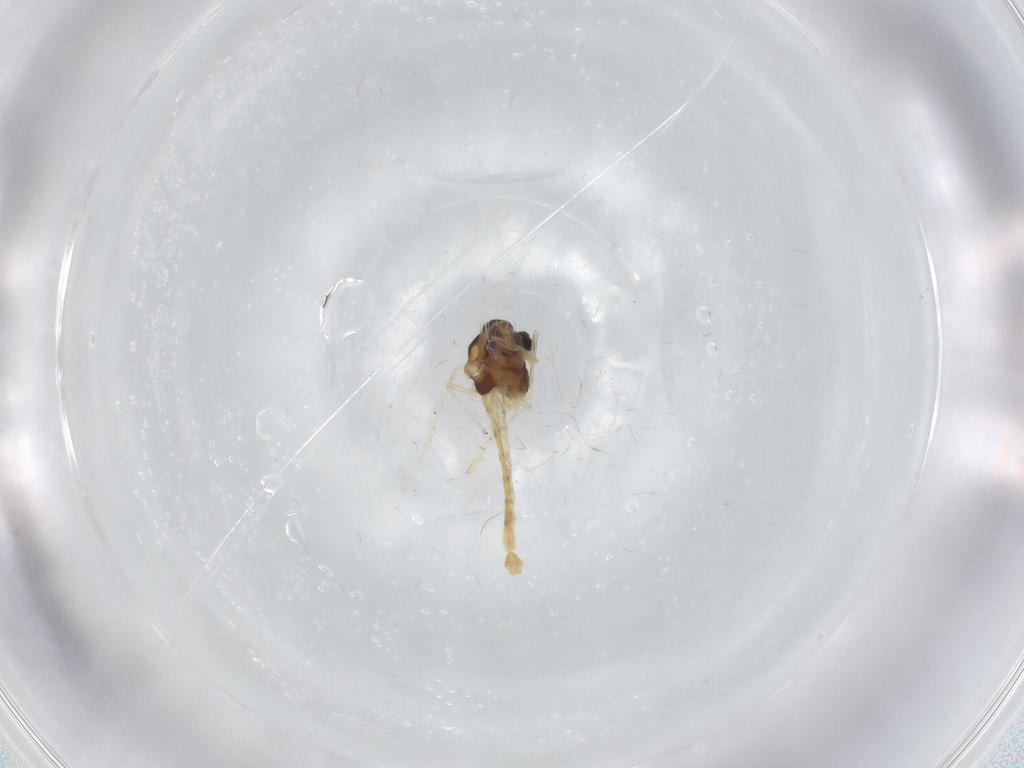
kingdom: Animalia
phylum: Arthropoda
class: Insecta
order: Diptera
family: Chironomidae
